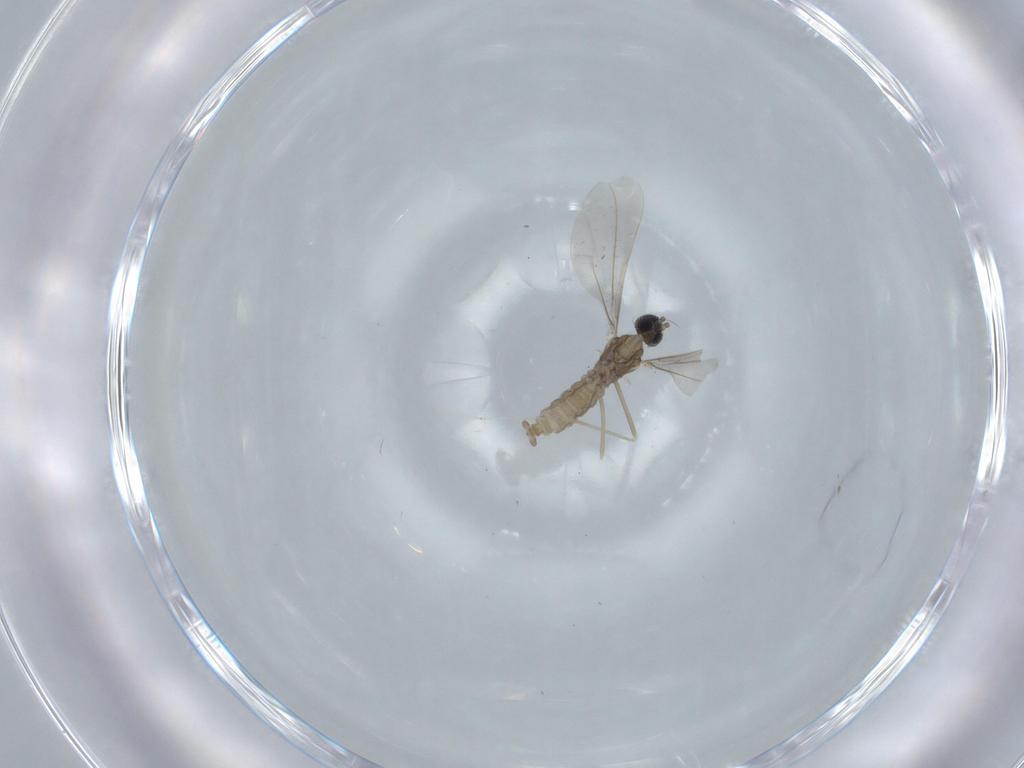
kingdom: Animalia
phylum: Arthropoda
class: Insecta
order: Diptera
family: Cecidomyiidae
